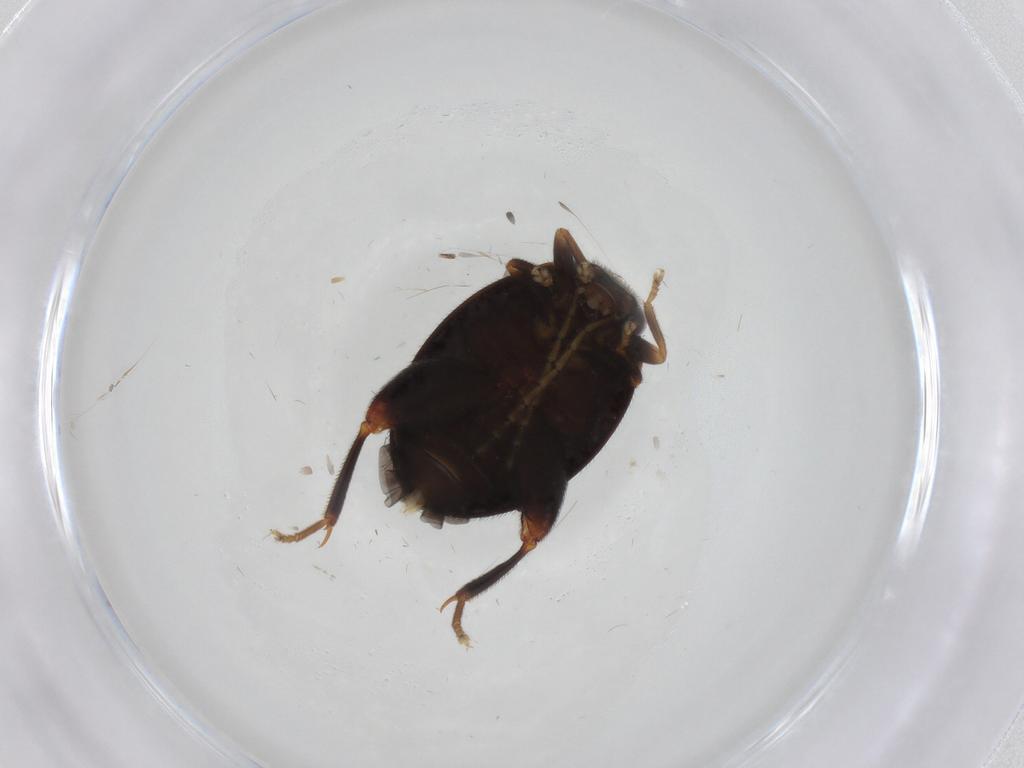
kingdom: Animalia
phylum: Arthropoda
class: Insecta
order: Coleoptera
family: Scirtidae
